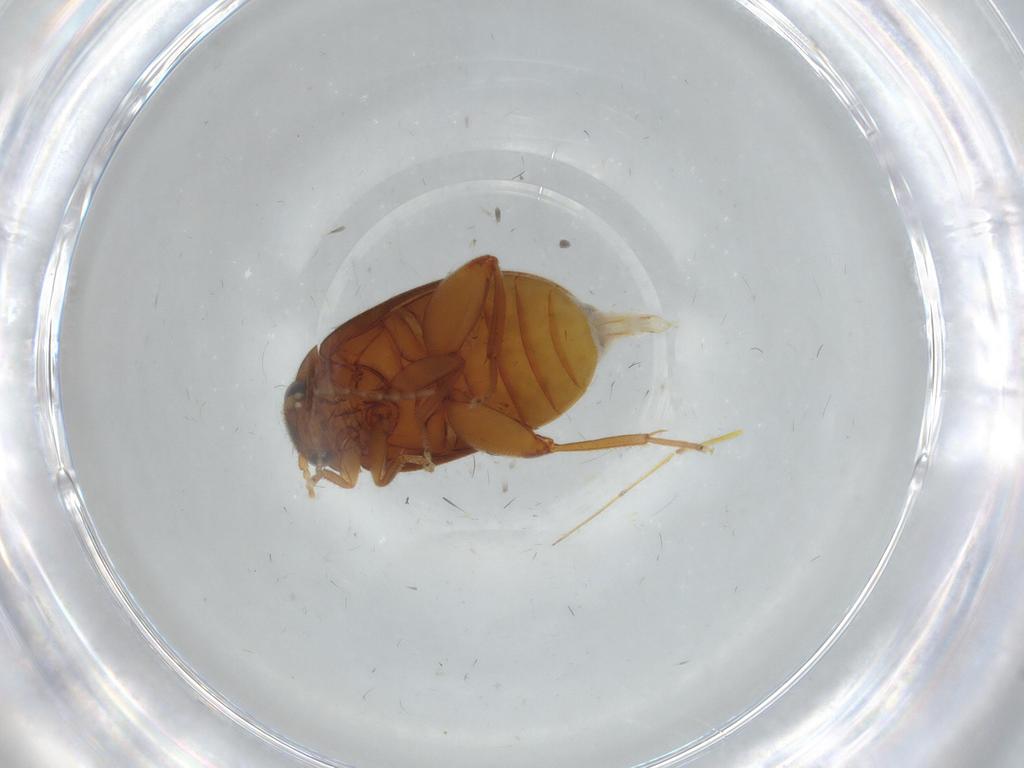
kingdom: Animalia
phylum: Arthropoda
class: Insecta
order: Coleoptera
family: Scirtidae
